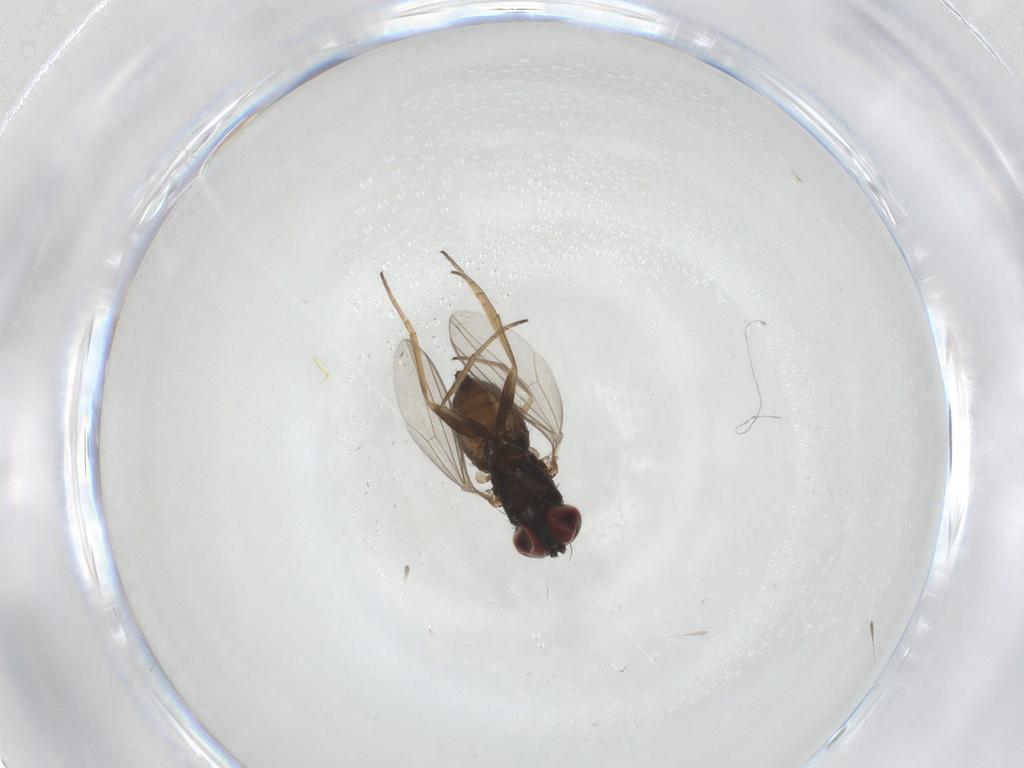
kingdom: Animalia
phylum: Arthropoda
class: Insecta
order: Diptera
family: Dolichopodidae
